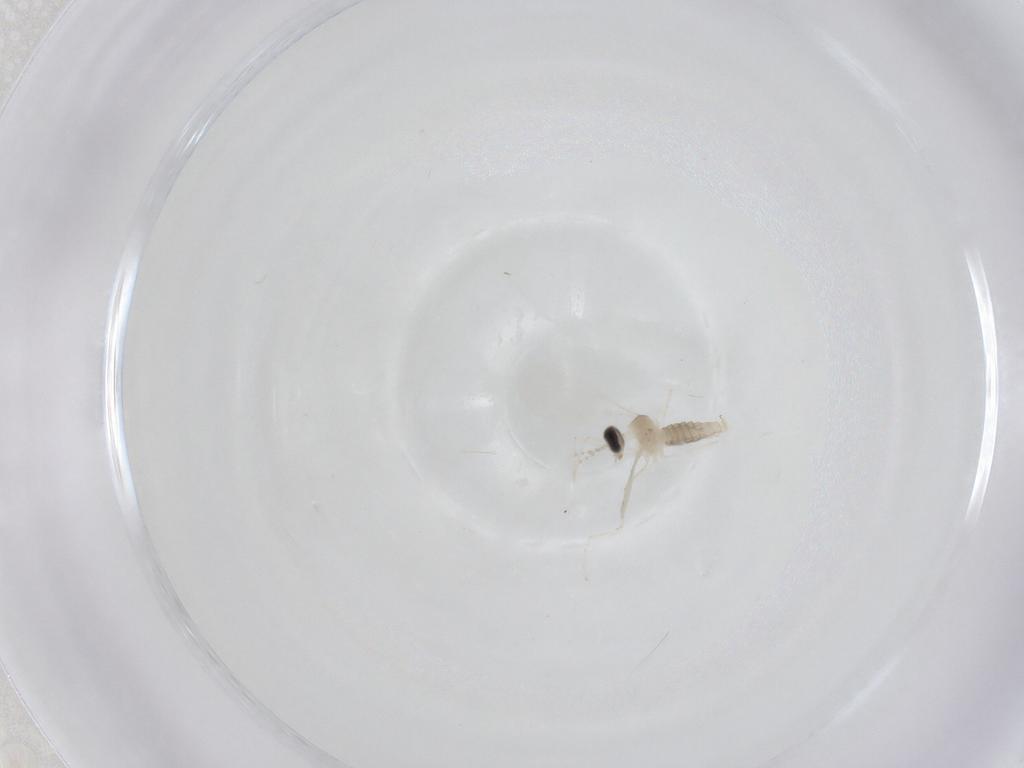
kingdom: Animalia
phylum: Arthropoda
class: Insecta
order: Diptera
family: Cecidomyiidae
